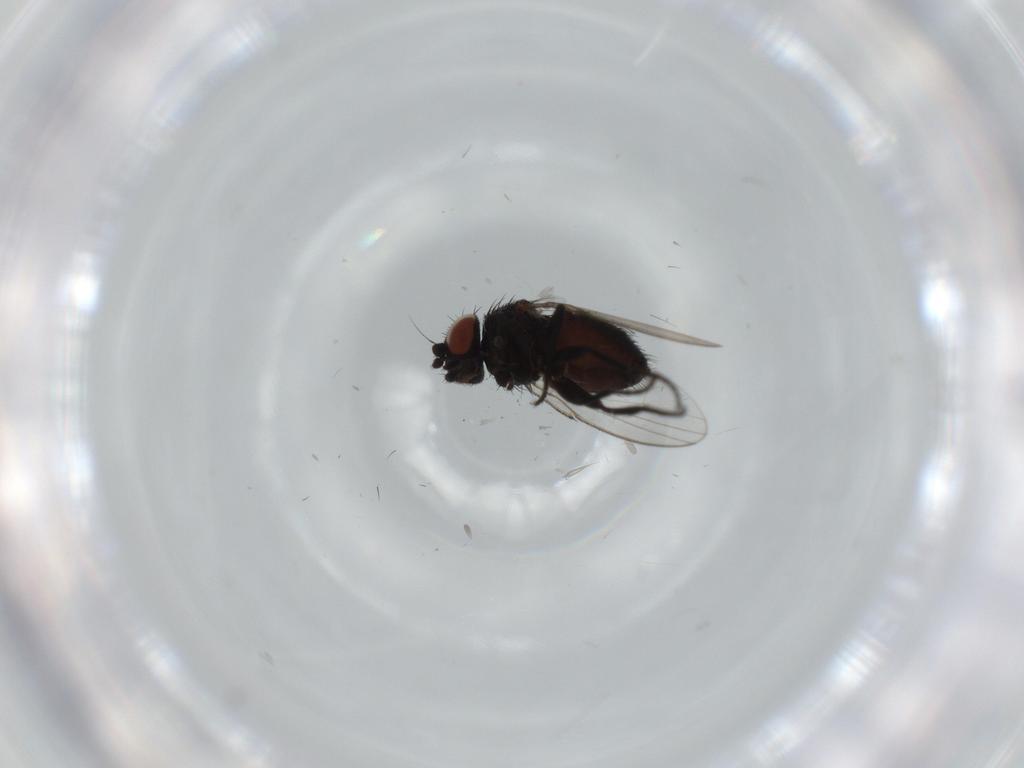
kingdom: Animalia
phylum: Arthropoda
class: Insecta
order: Diptera
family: Milichiidae
